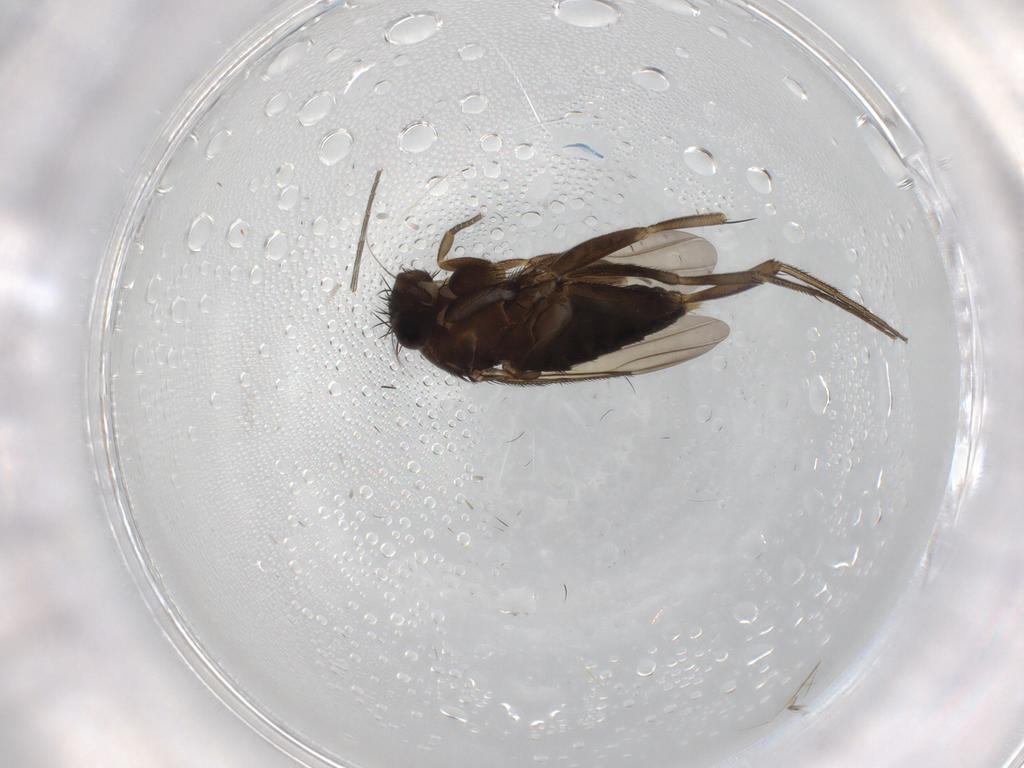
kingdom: Animalia
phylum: Arthropoda
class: Insecta
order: Diptera
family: Phoridae
